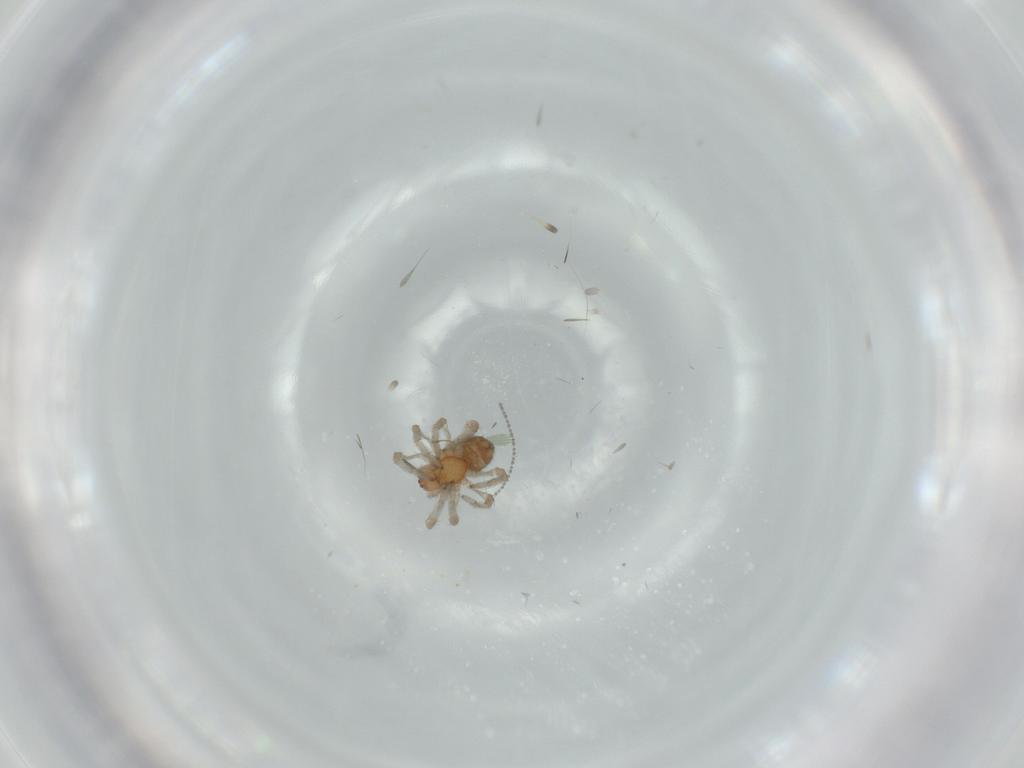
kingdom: Animalia
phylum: Arthropoda
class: Arachnida
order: Araneae
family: Dictynidae
